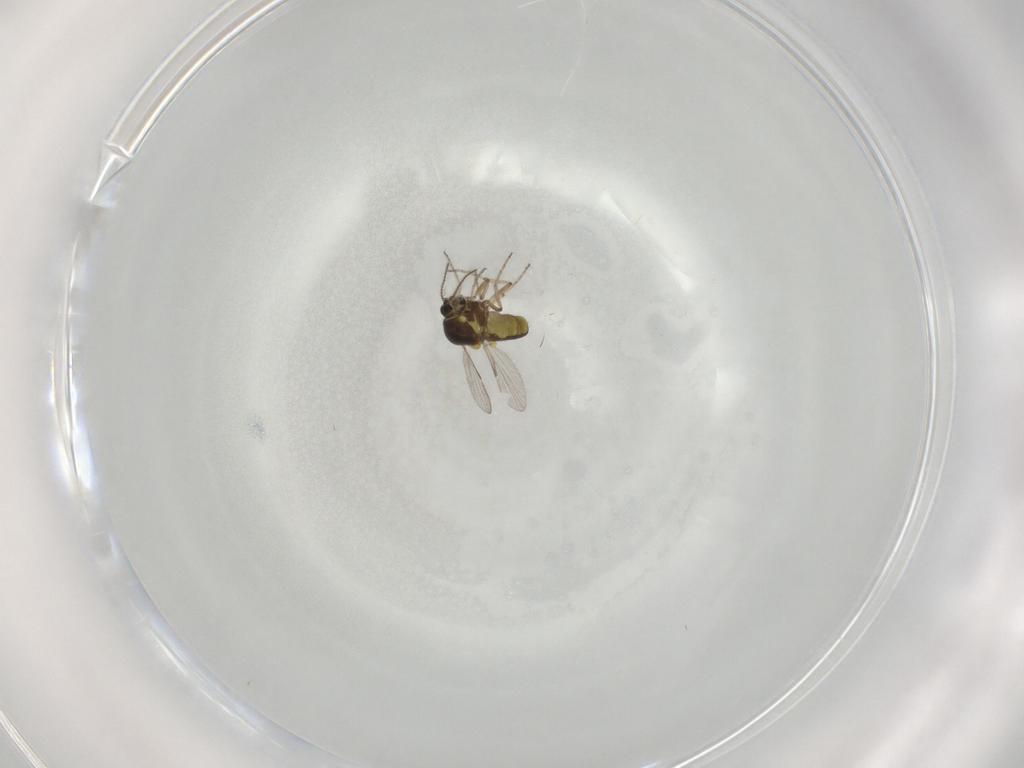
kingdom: Animalia
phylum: Arthropoda
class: Insecta
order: Diptera
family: Ceratopogonidae
